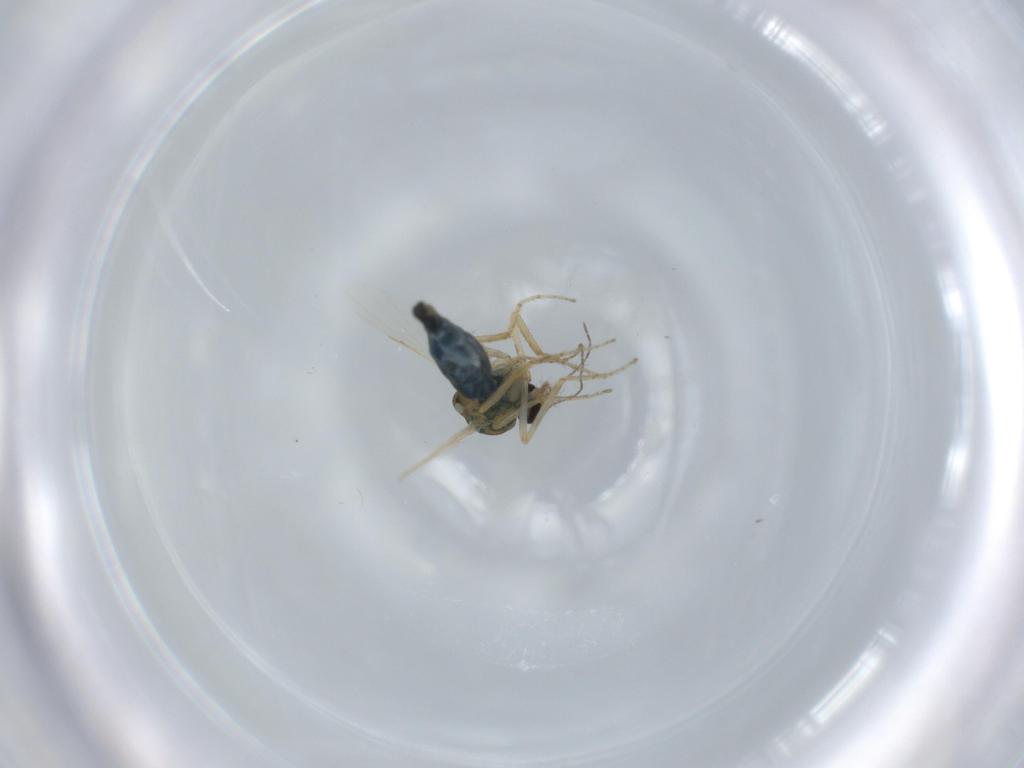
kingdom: Animalia
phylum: Arthropoda
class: Insecta
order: Diptera
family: Ceratopogonidae
